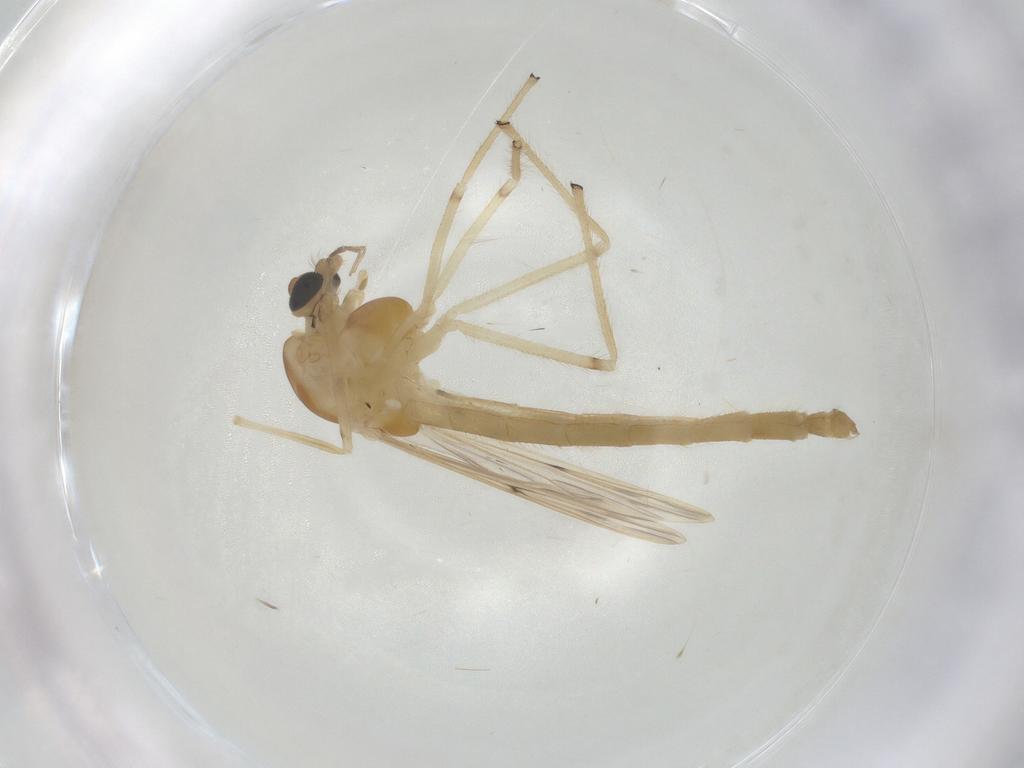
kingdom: Animalia
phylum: Arthropoda
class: Insecta
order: Diptera
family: Chironomidae
